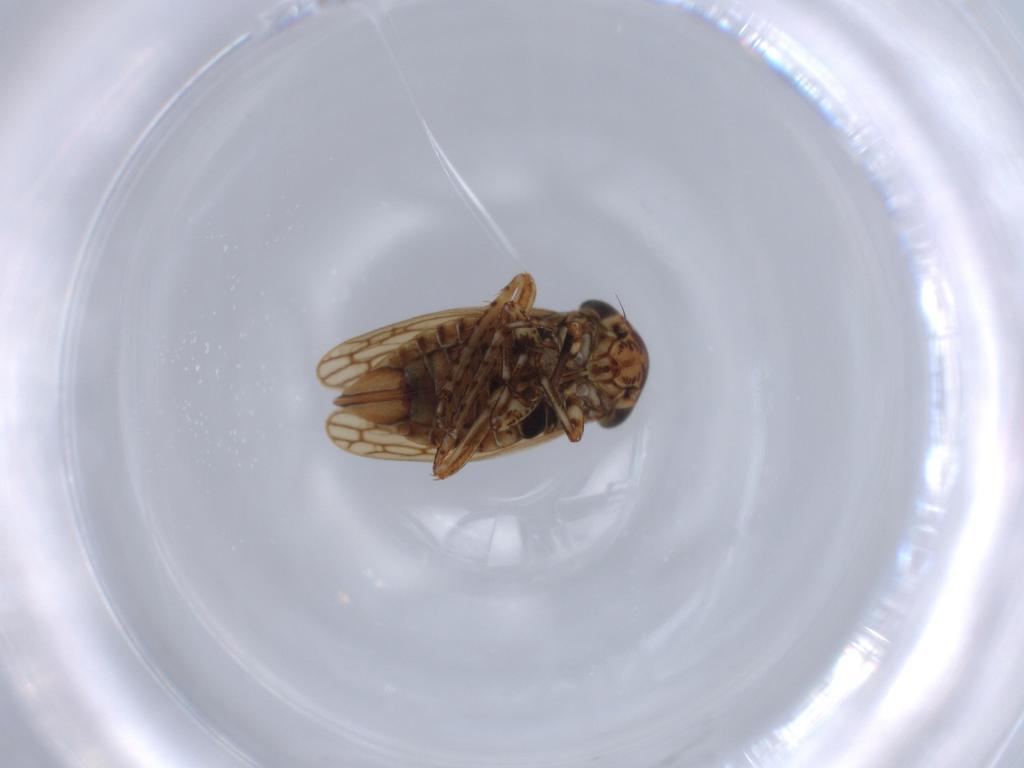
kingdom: Animalia
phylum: Arthropoda
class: Insecta
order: Hemiptera
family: Cicadellidae
